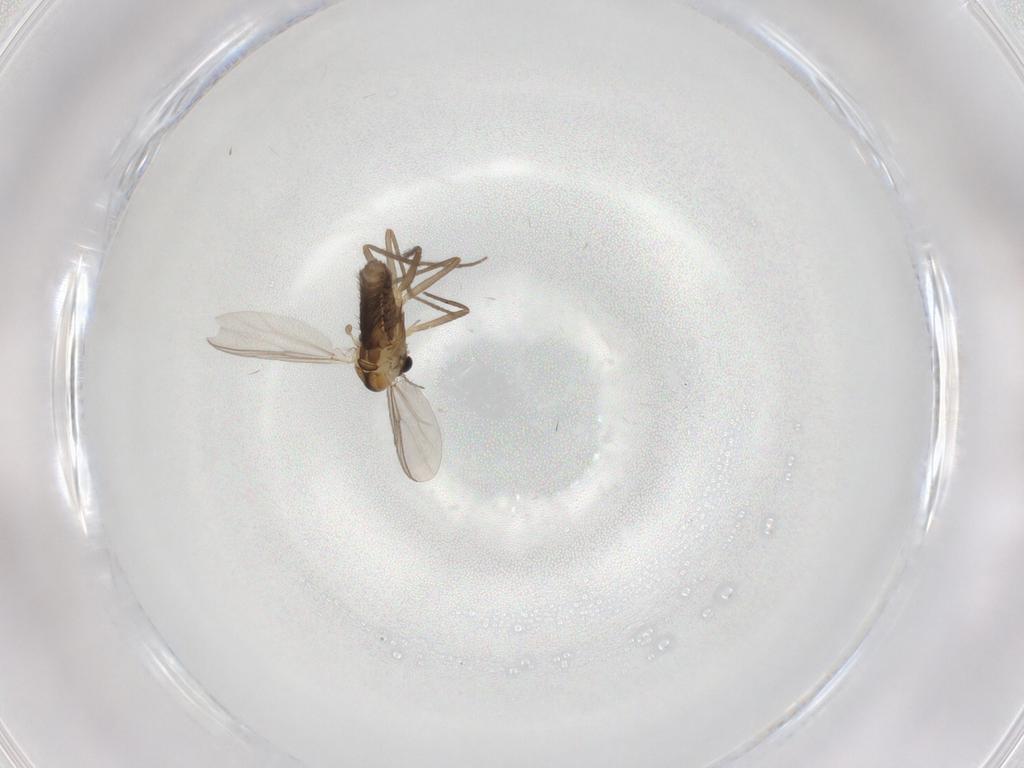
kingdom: Animalia
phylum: Arthropoda
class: Insecta
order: Diptera
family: Chironomidae
